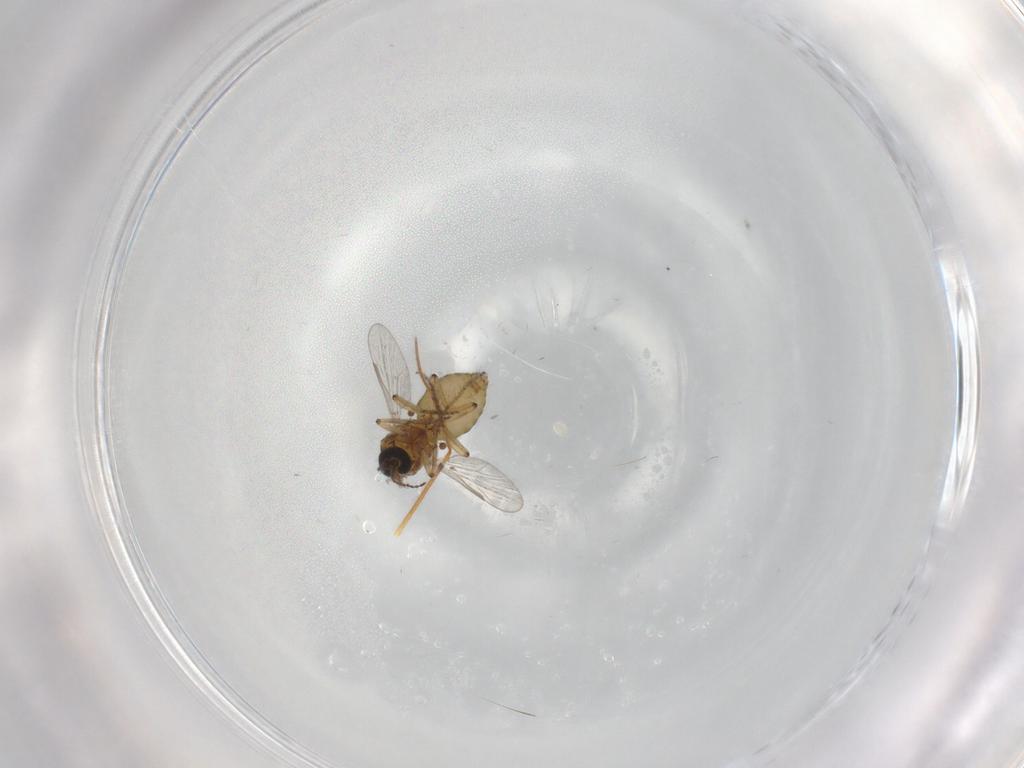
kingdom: Animalia
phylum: Arthropoda
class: Insecta
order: Diptera
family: Ceratopogonidae
